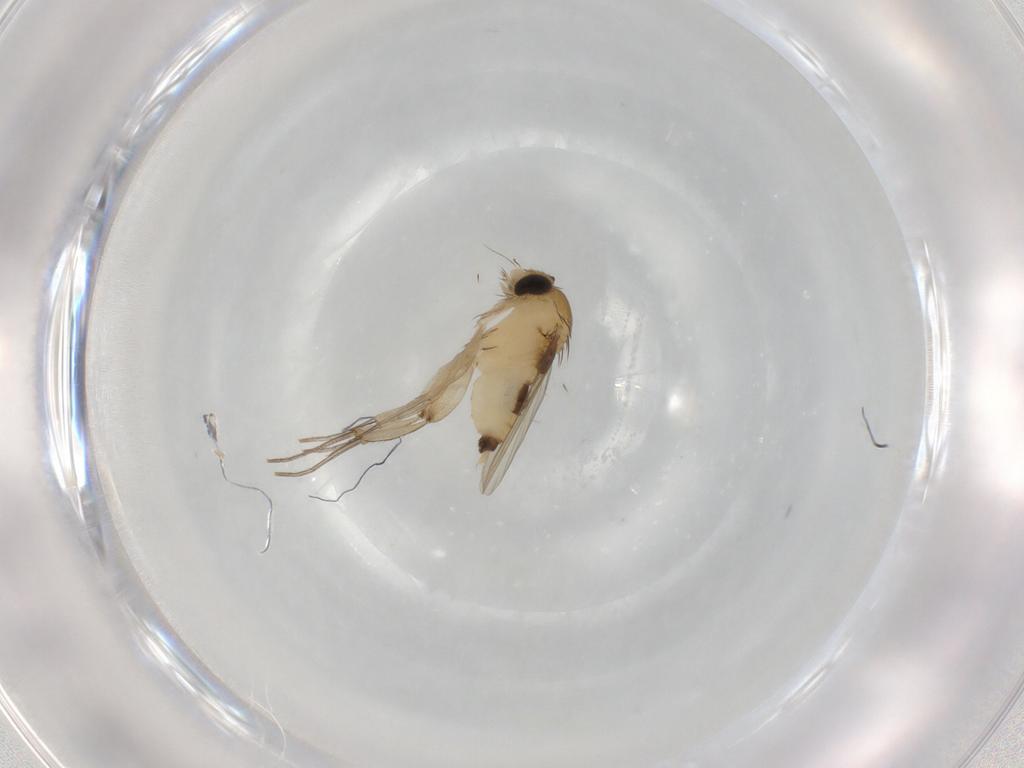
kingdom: Animalia
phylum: Arthropoda
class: Insecta
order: Diptera
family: Phoridae
